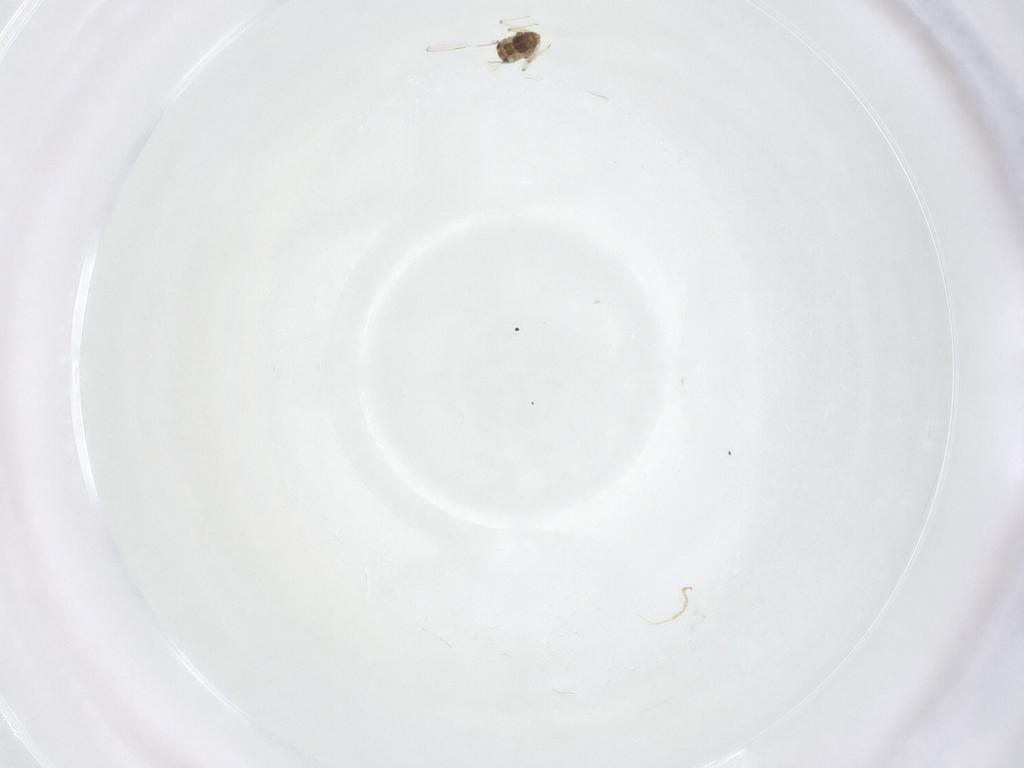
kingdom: Animalia
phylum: Arthropoda
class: Insecta
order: Diptera
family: Chironomidae
